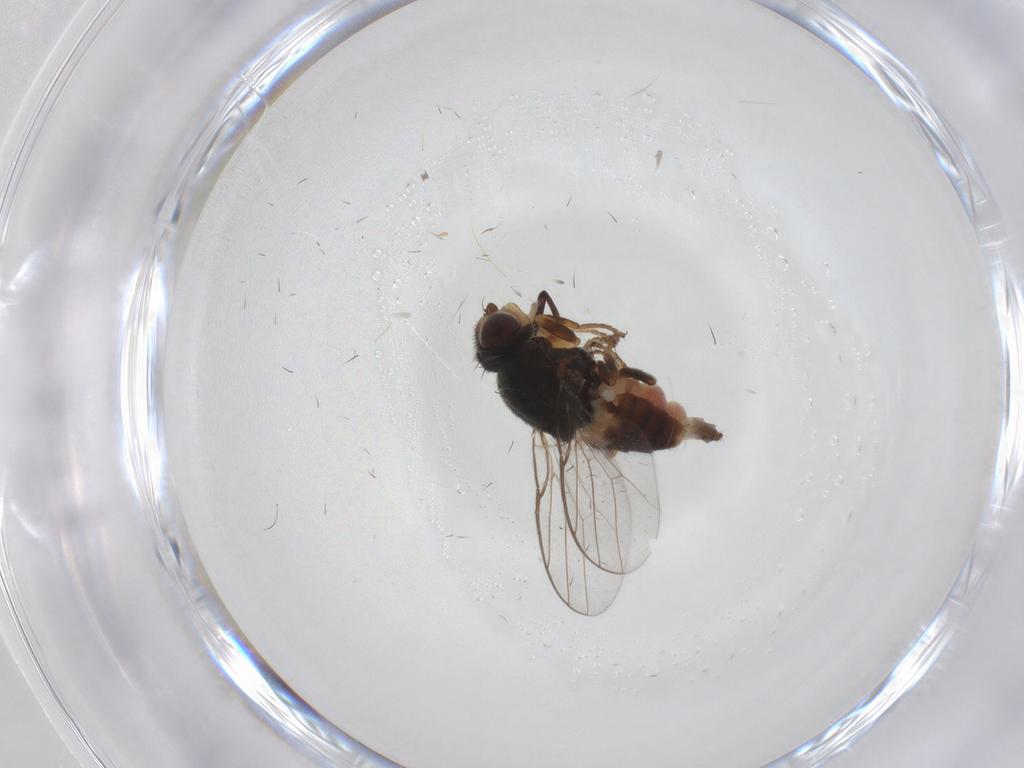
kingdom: Animalia
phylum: Arthropoda
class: Insecta
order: Diptera
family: Chloropidae
